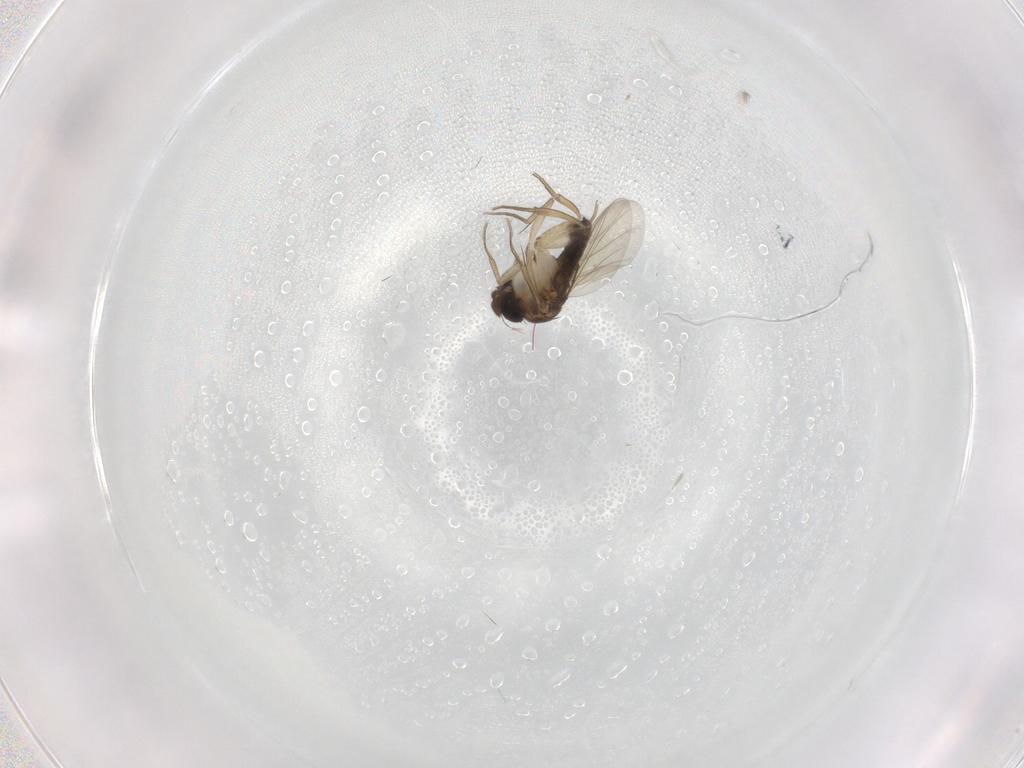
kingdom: Animalia
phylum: Arthropoda
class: Insecta
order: Diptera
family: Phoridae
